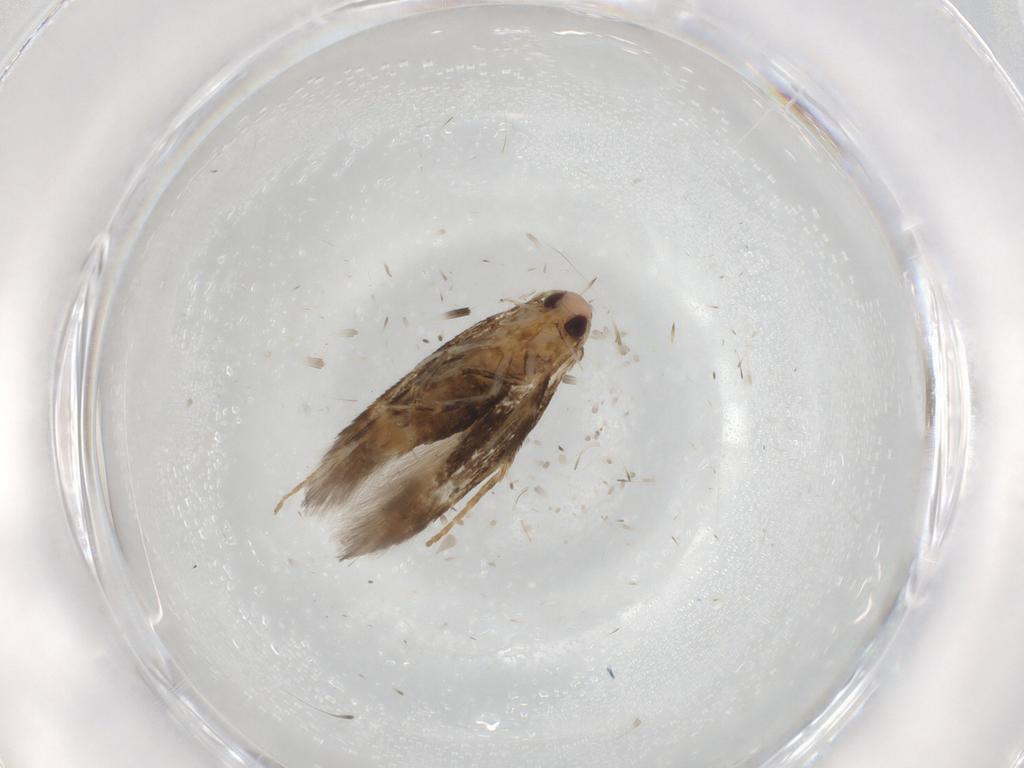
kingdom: Animalia
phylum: Arthropoda
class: Insecta
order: Lepidoptera
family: Cosmopterigidae
